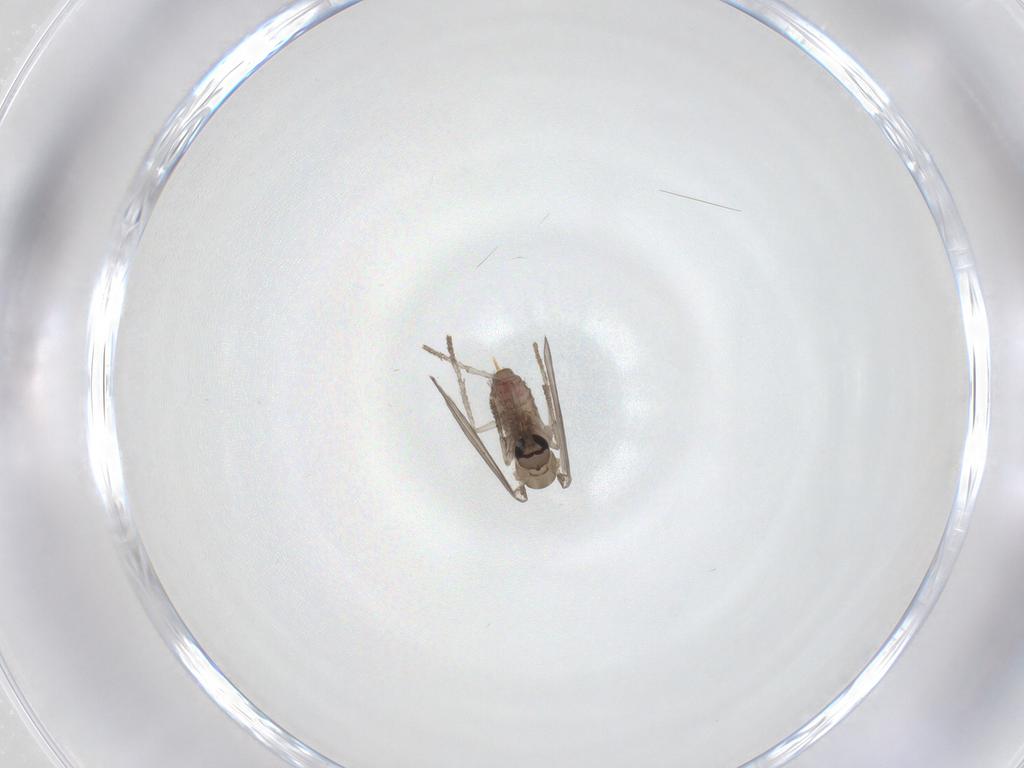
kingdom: Animalia
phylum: Arthropoda
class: Insecta
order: Diptera
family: Psychodidae
